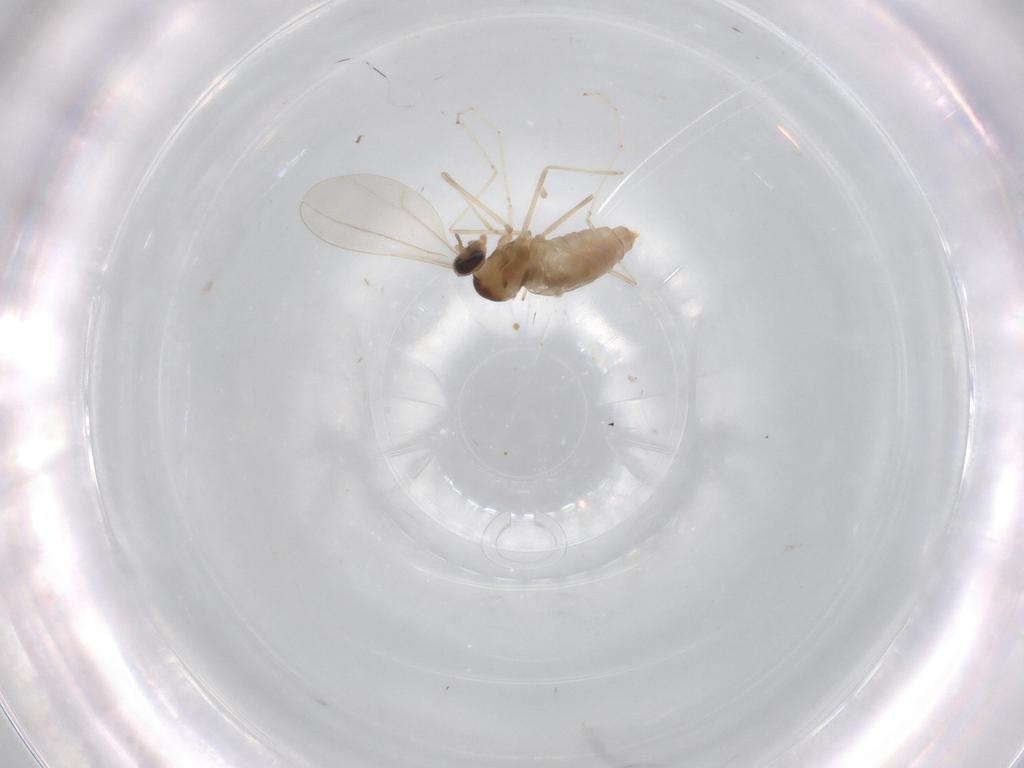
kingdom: Animalia
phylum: Arthropoda
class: Insecta
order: Diptera
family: Cecidomyiidae
